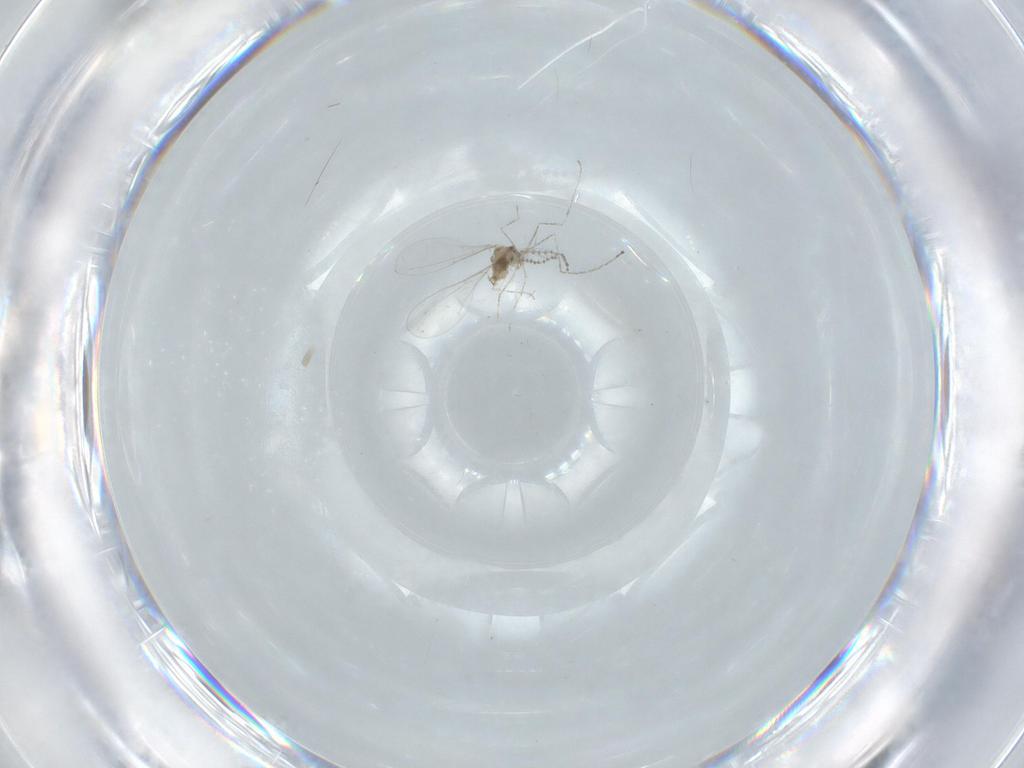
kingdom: Animalia
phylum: Arthropoda
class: Insecta
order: Diptera
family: Cecidomyiidae
